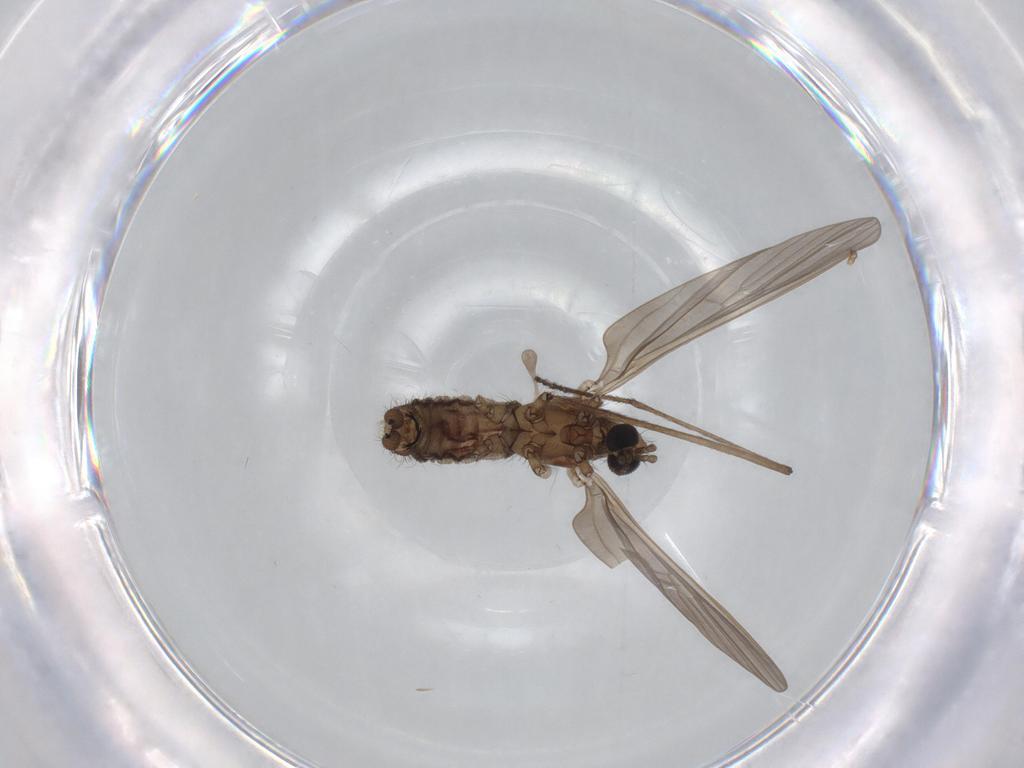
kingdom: Animalia
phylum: Arthropoda
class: Insecta
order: Diptera
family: Dolichopodidae
